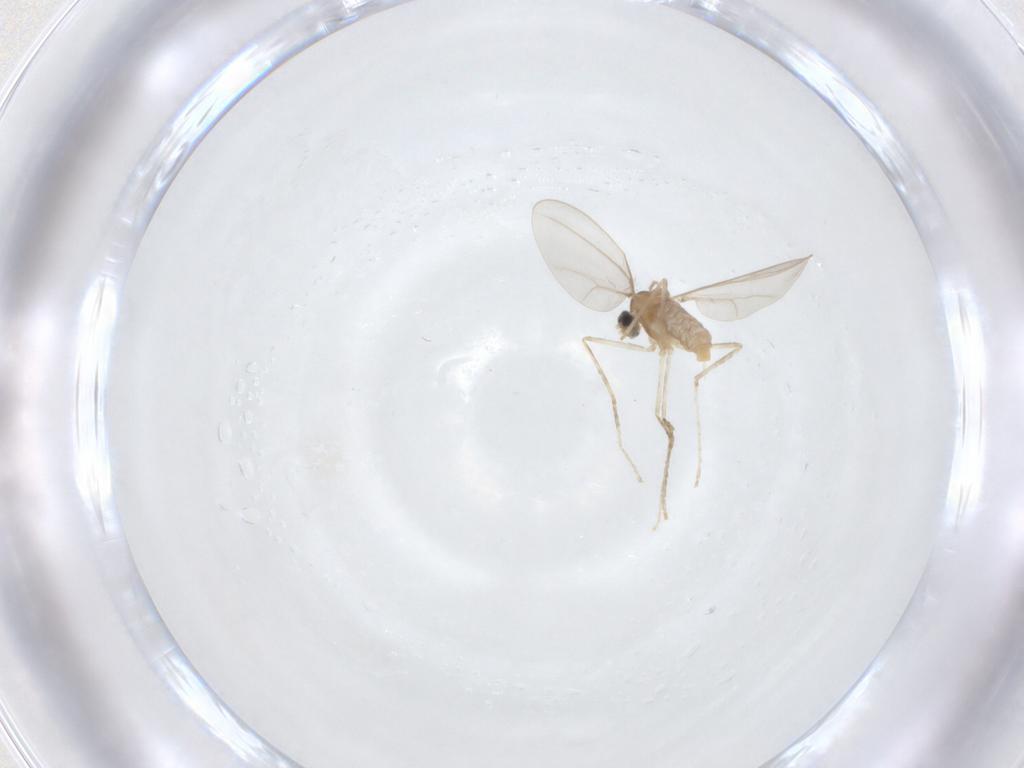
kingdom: Animalia
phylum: Arthropoda
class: Insecta
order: Diptera
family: Cecidomyiidae
